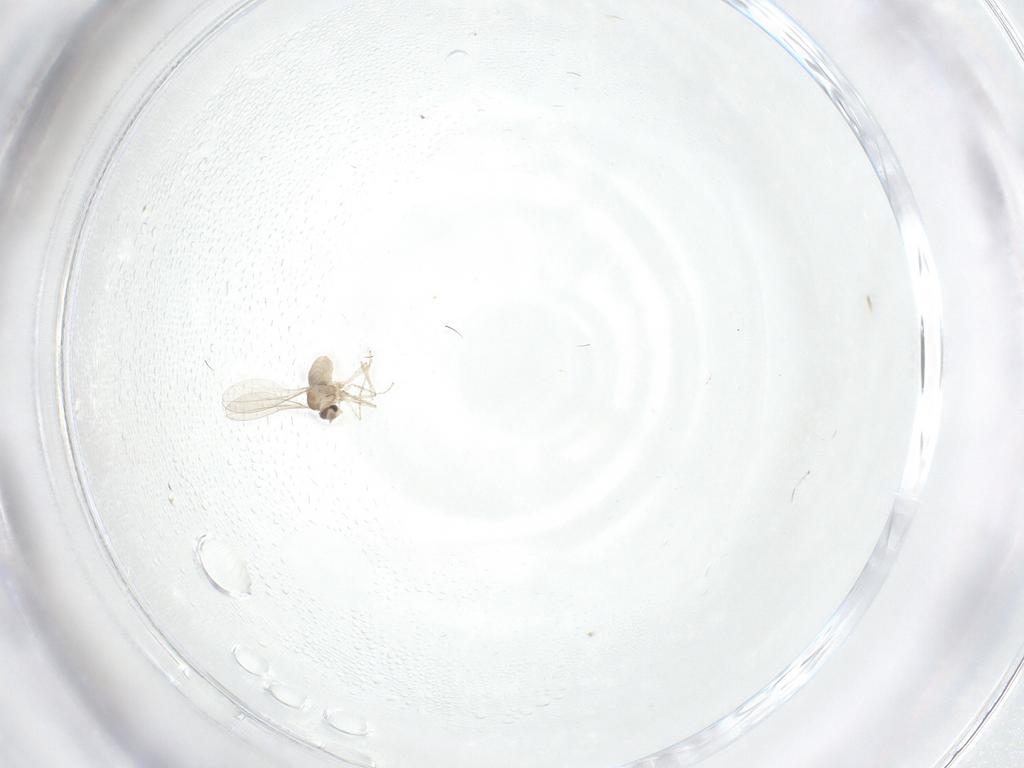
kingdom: Animalia
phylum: Arthropoda
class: Insecta
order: Diptera
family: Cecidomyiidae
